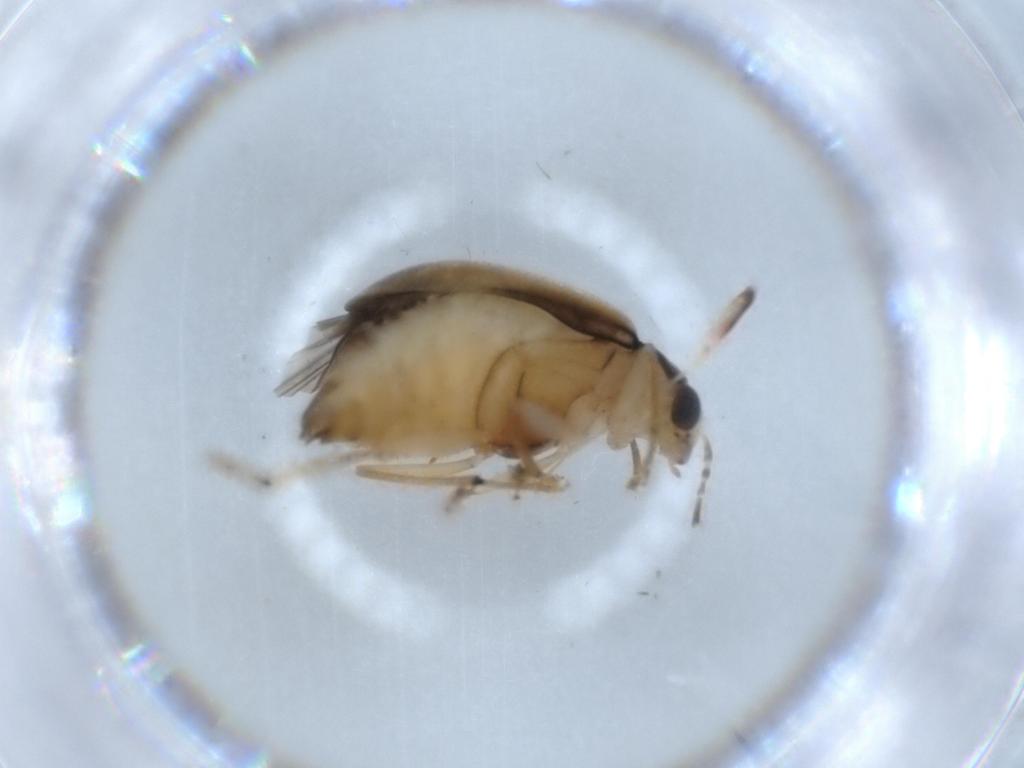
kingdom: Animalia
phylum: Arthropoda
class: Insecta
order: Coleoptera
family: Chrysomelidae
